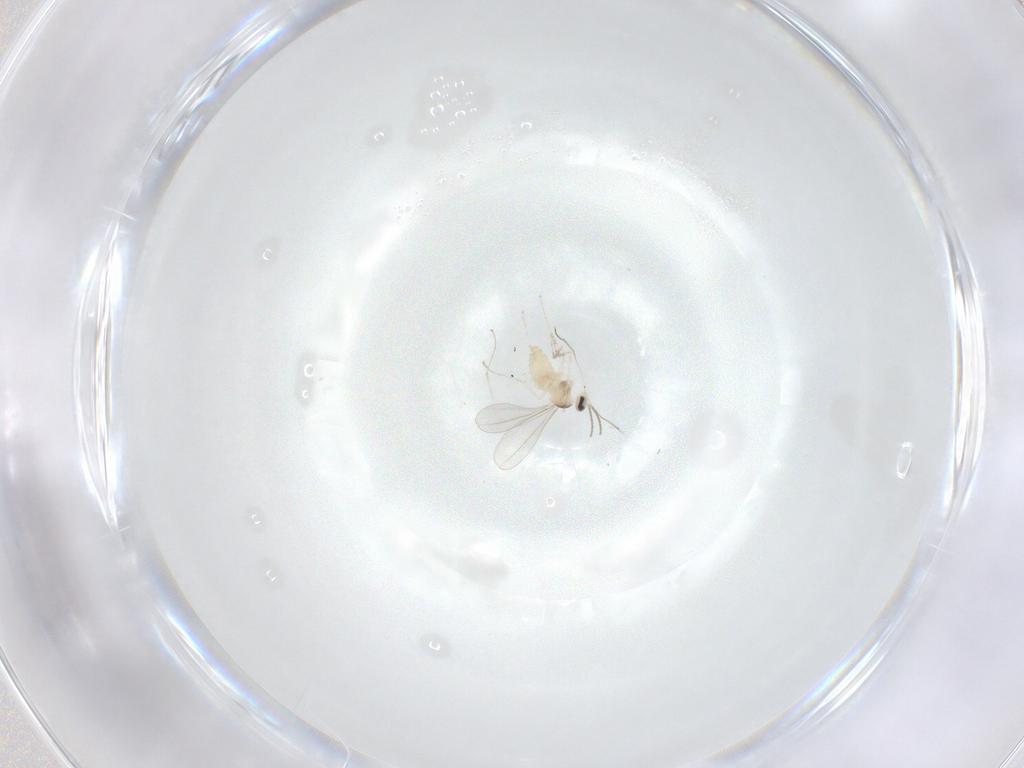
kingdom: Animalia
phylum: Arthropoda
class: Insecta
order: Diptera
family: Cecidomyiidae
